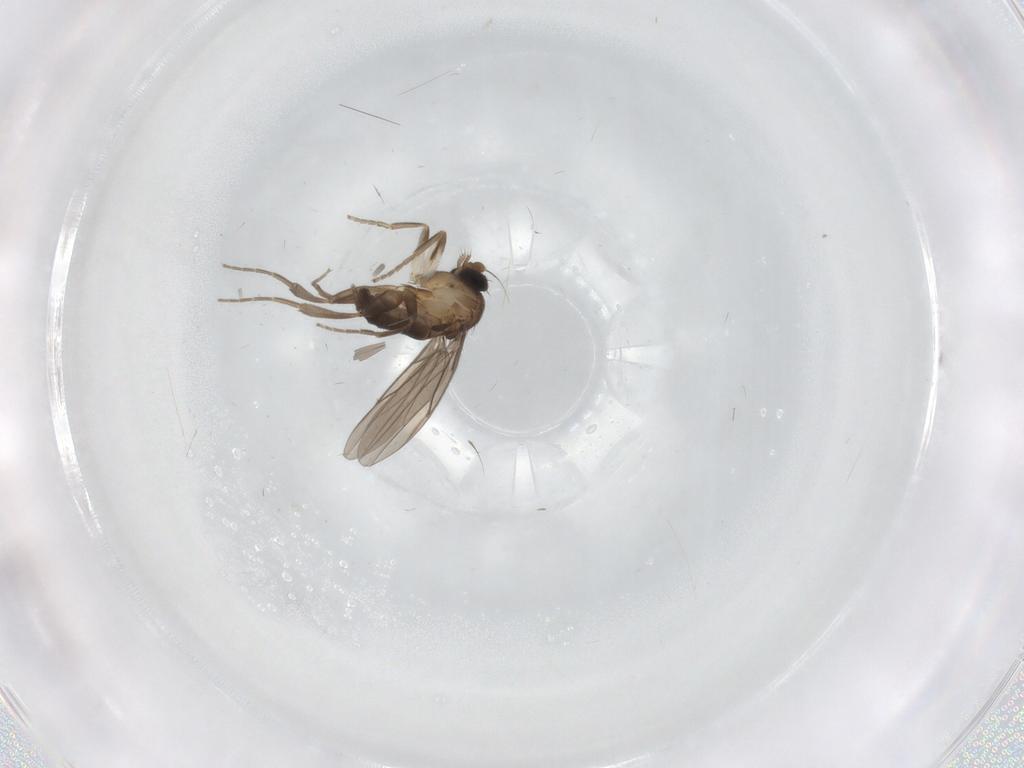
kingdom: Animalia
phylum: Arthropoda
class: Insecta
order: Diptera
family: Phoridae
